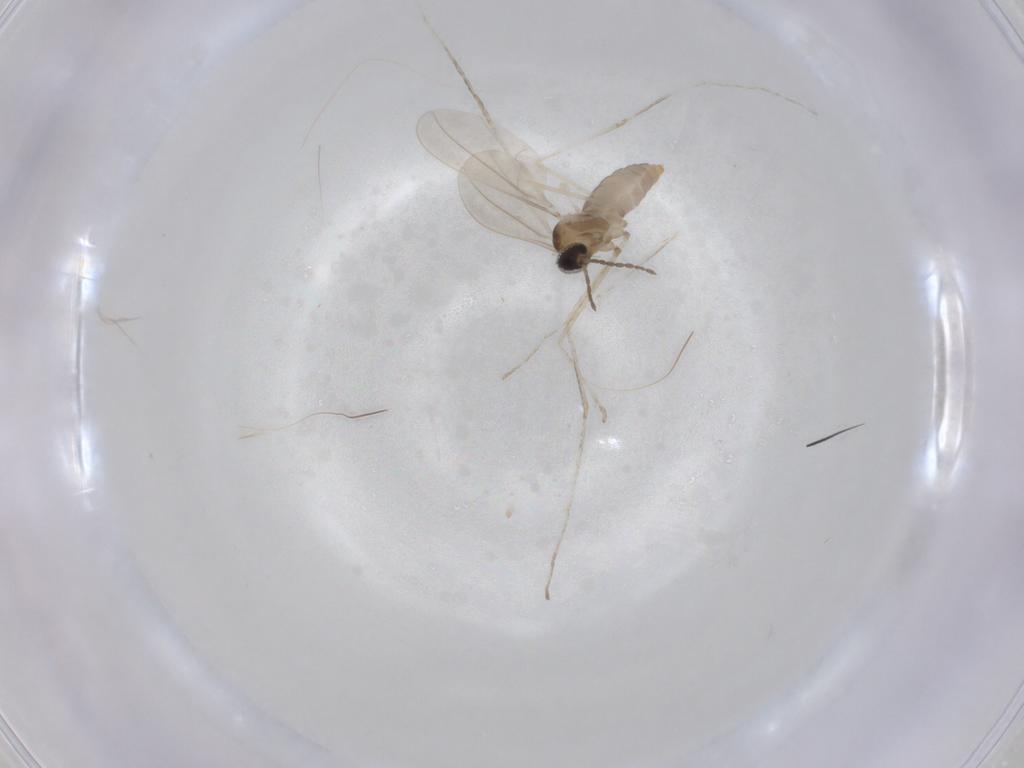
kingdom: Animalia
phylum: Arthropoda
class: Insecta
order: Diptera
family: Cecidomyiidae
